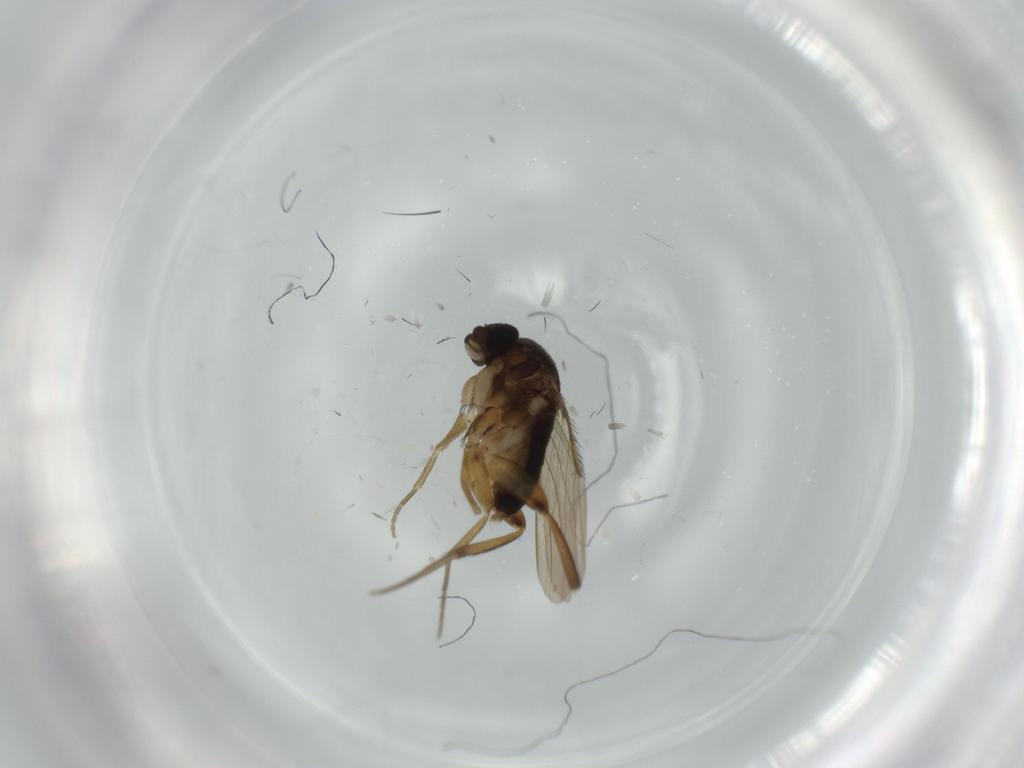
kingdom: Animalia
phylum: Arthropoda
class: Insecta
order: Diptera
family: Phoridae
